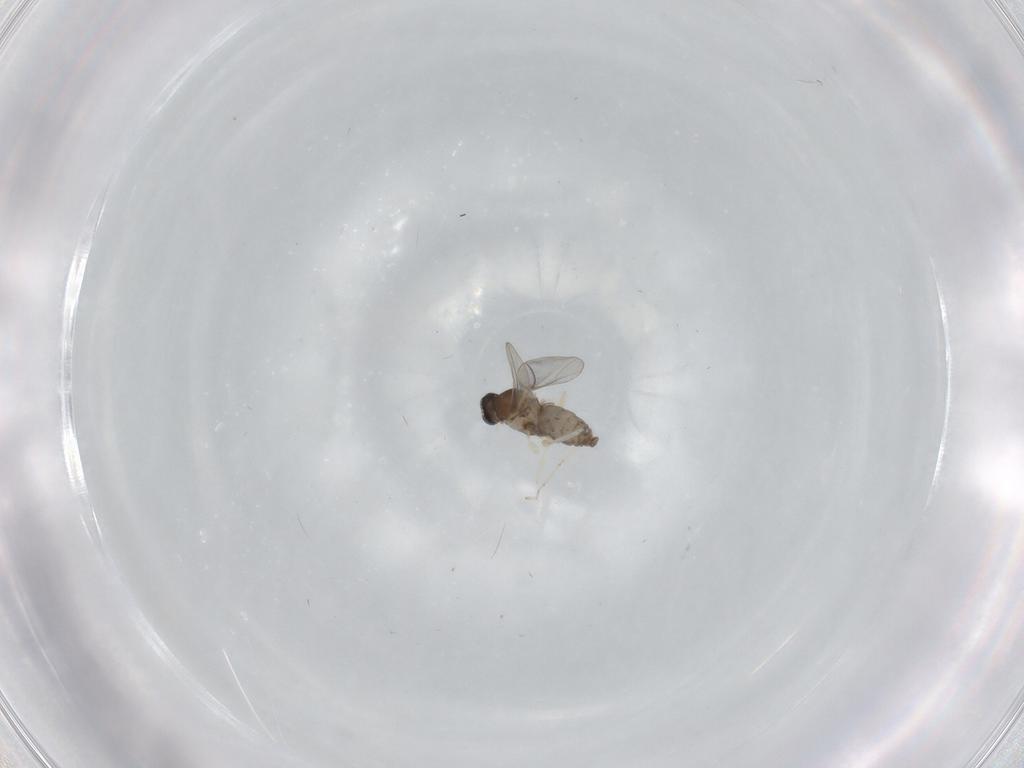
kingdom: Animalia
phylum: Arthropoda
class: Insecta
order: Diptera
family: Cecidomyiidae
